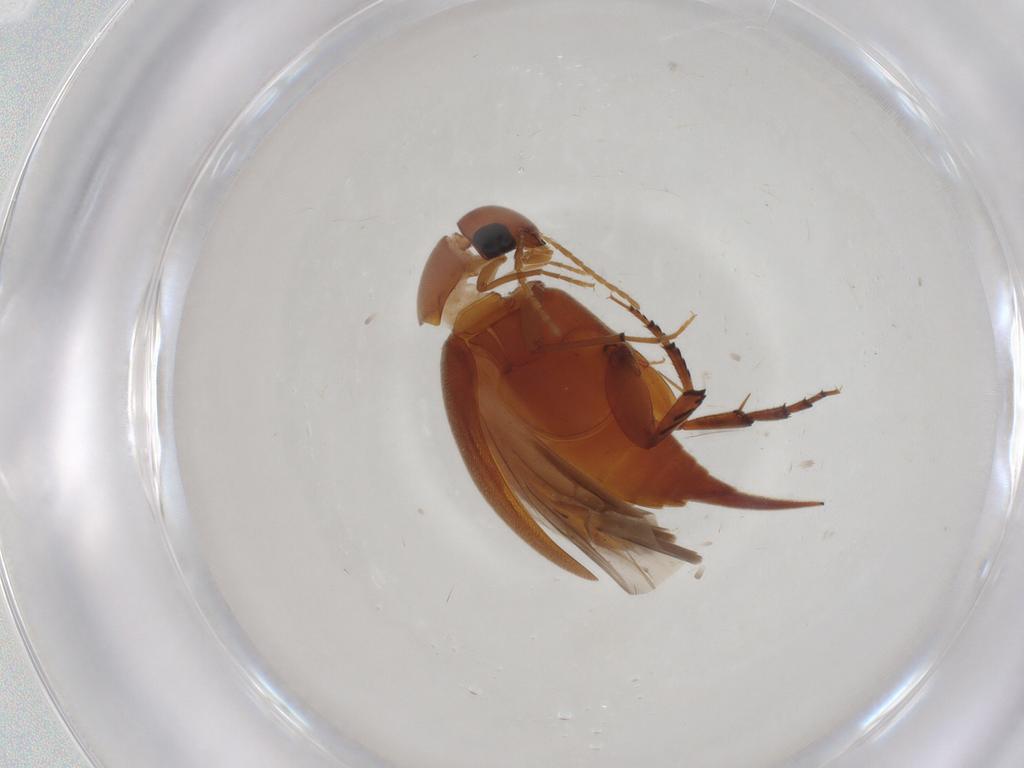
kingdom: Animalia
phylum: Arthropoda
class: Insecta
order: Coleoptera
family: Mordellidae
